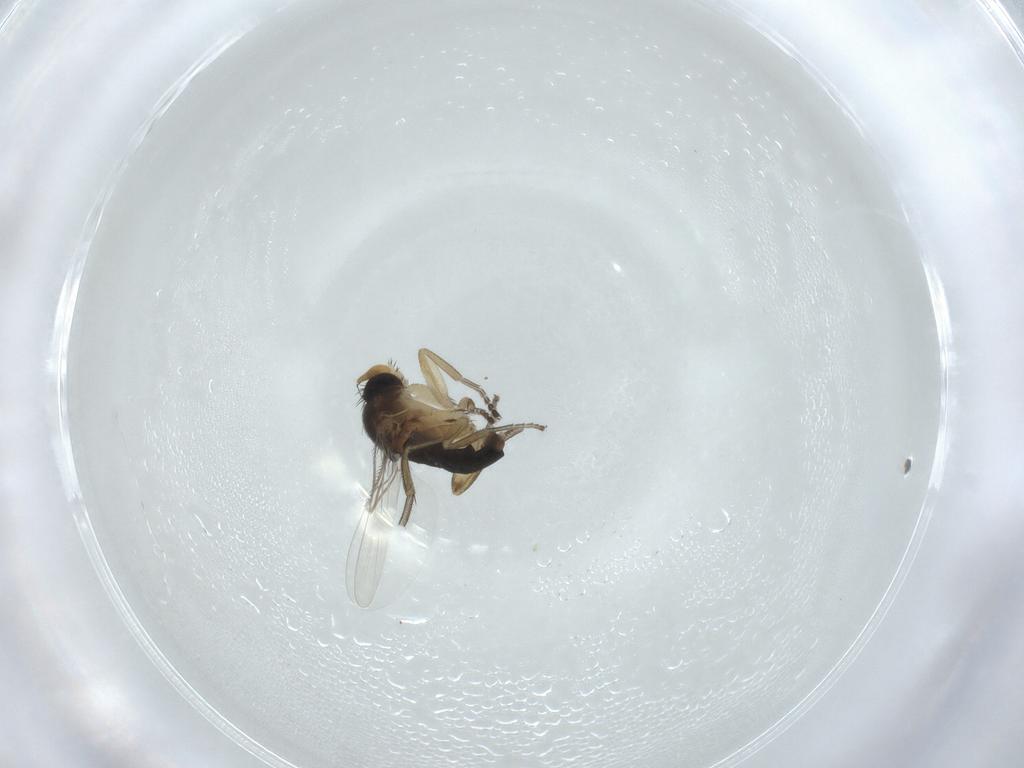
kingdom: Animalia
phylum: Arthropoda
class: Insecta
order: Diptera
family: Phoridae
